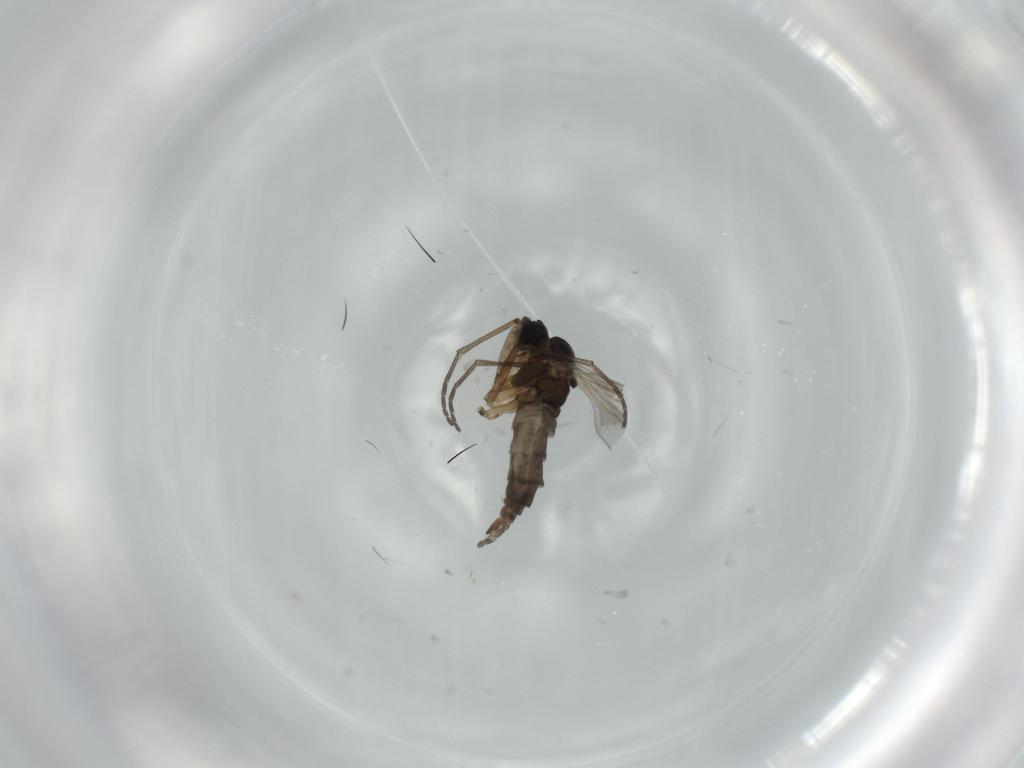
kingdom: Animalia
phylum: Arthropoda
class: Insecta
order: Diptera
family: Sciaridae
